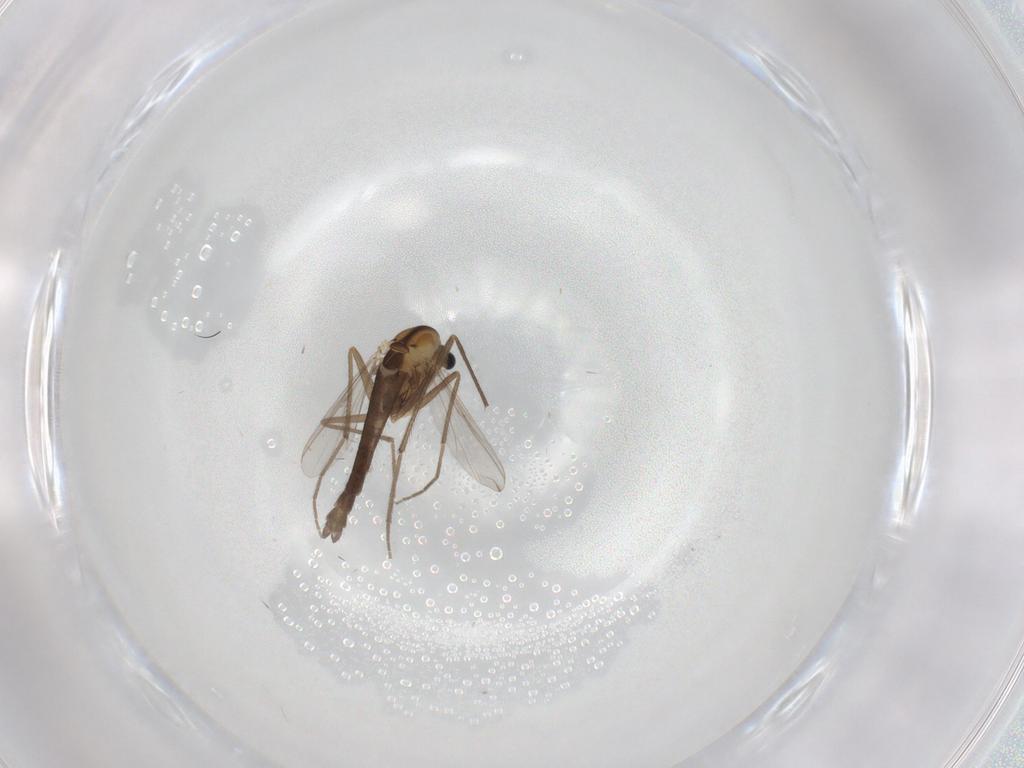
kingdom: Animalia
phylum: Arthropoda
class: Insecta
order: Diptera
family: Chironomidae
